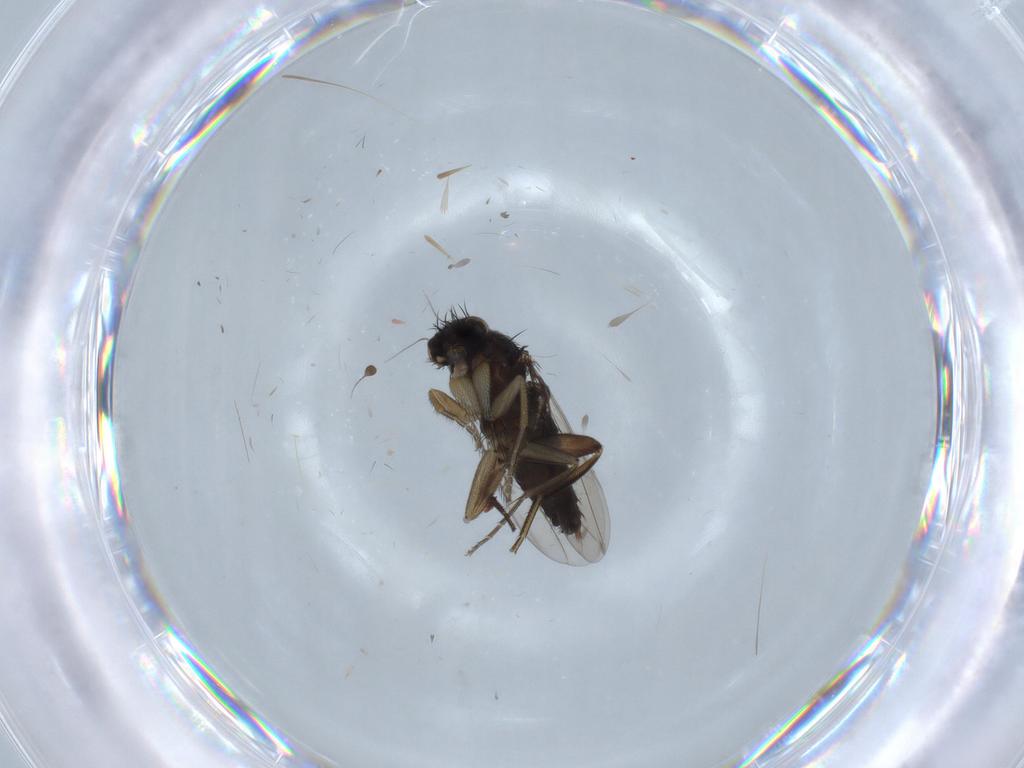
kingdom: Animalia
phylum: Arthropoda
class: Insecta
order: Diptera
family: Phoridae
